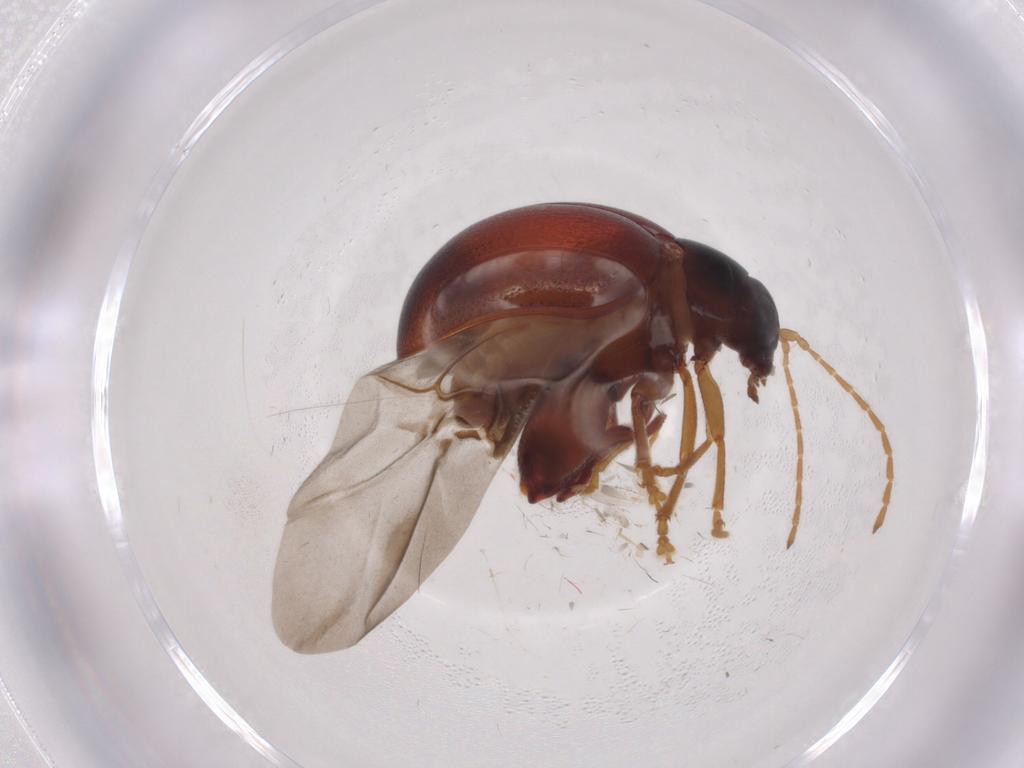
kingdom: Animalia
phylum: Arthropoda
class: Insecta
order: Coleoptera
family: Chrysomelidae
